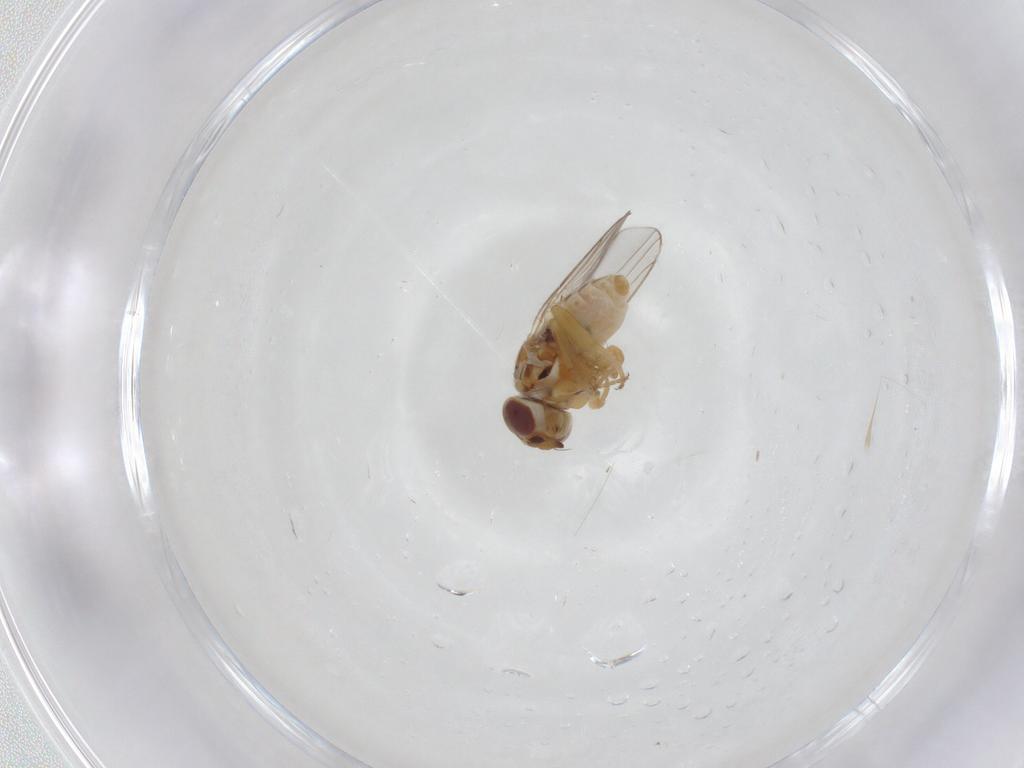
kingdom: Animalia
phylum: Arthropoda
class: Insecta
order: Diptera
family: Chloropidae
